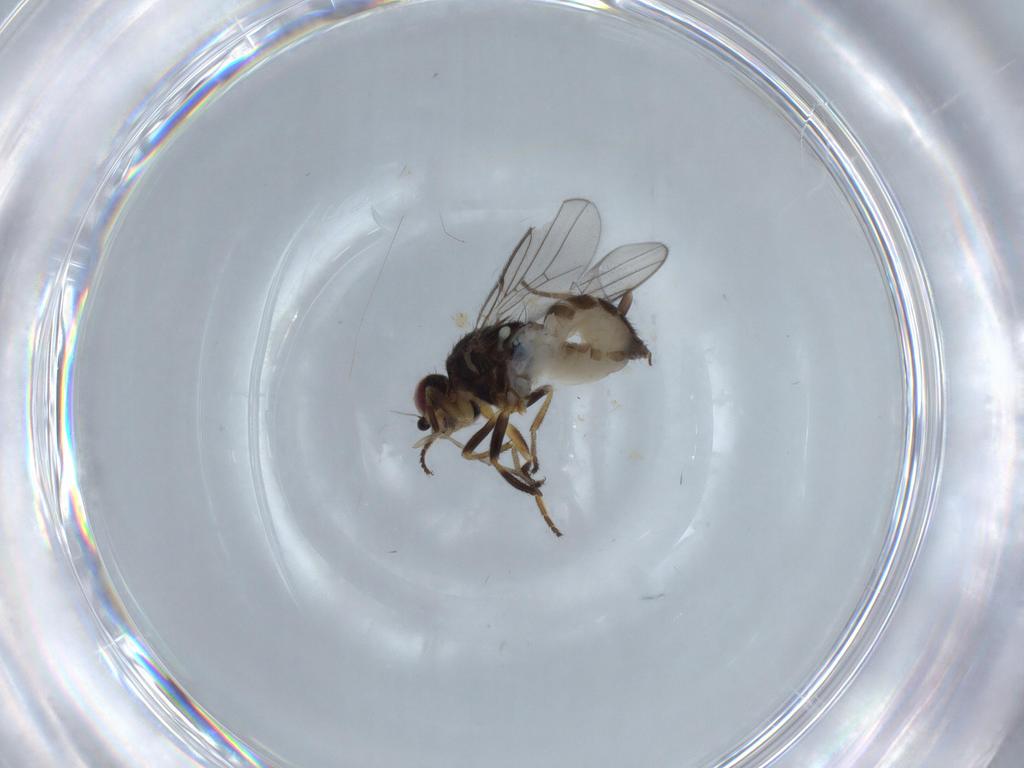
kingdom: Animalia
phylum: Arthropoda
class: Insecta
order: Diptera
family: Chloropidae
